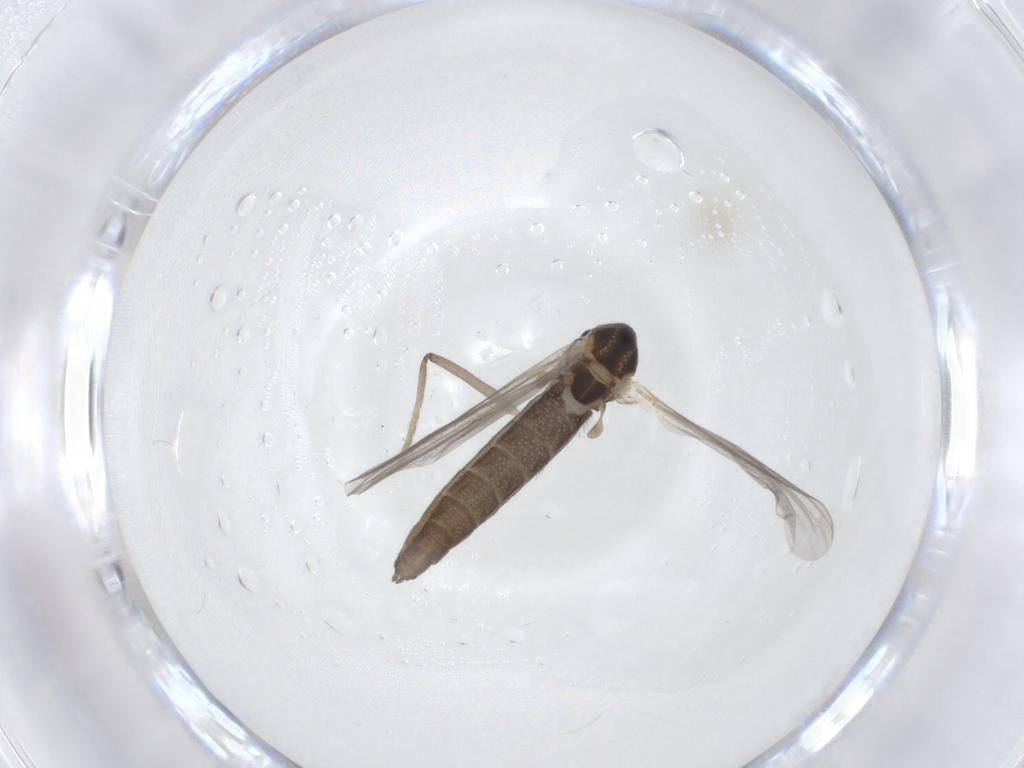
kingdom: Animalia
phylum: Arthropoda
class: Insecta
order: Diptera
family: Chironomidae
